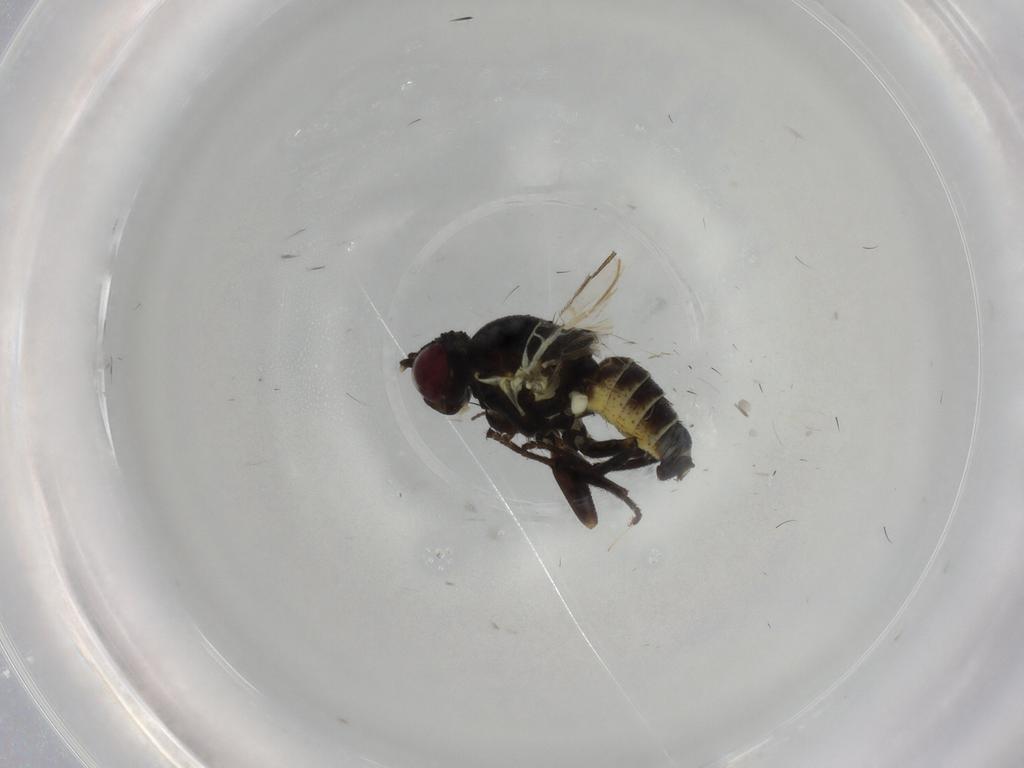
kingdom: Animalia
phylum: Arthropoda
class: Insecta
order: Diptera
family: Agromyzidae
